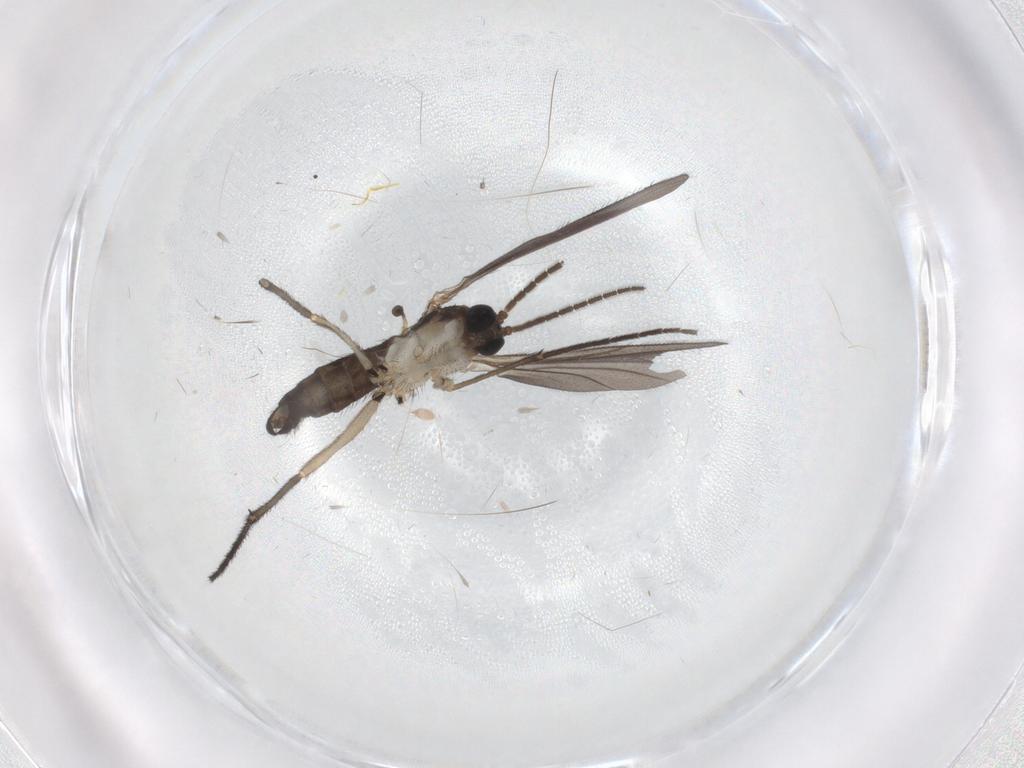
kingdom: Animalia
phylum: Arthropoda
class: Insecta
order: Diptera
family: Sciaridae
